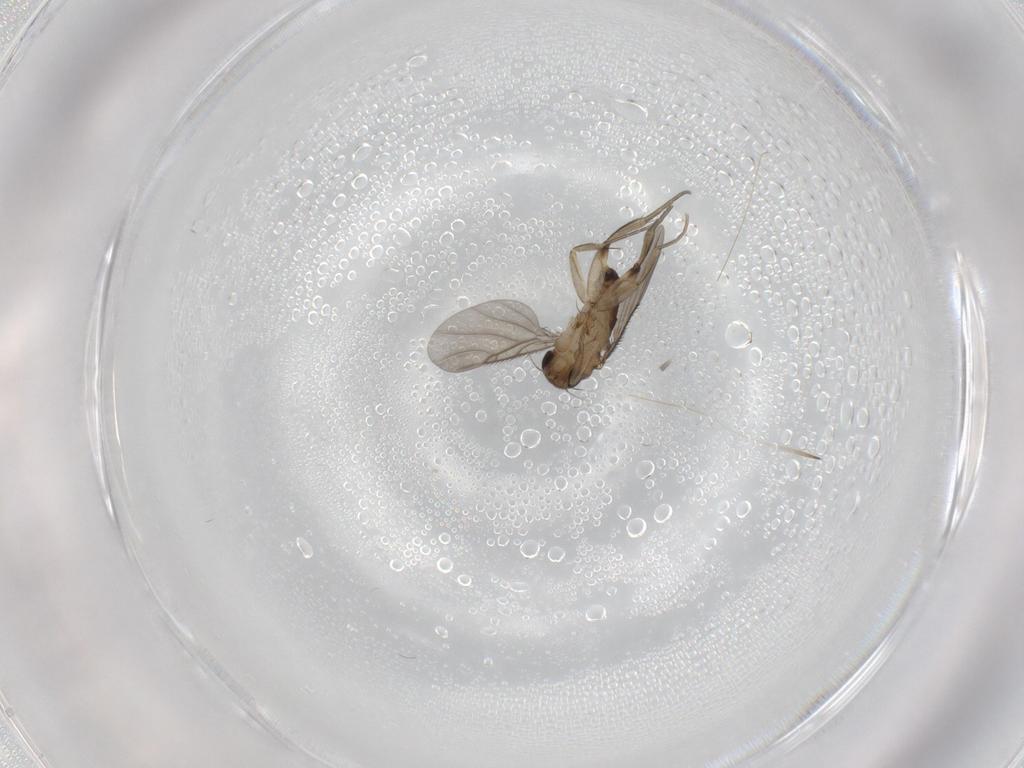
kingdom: Animalia
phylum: Arthropoda
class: Insecta
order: Diptera
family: Phoridae
